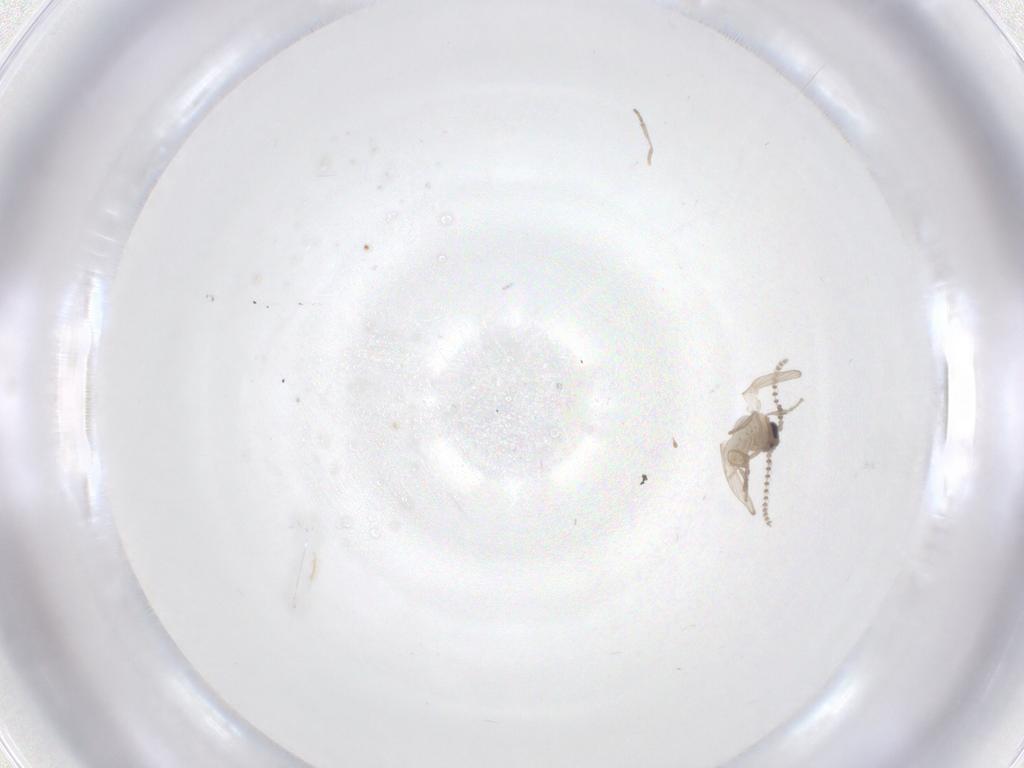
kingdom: Animalia
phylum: Arthropoda
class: Insecta
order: Diptera
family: Psychodidae
